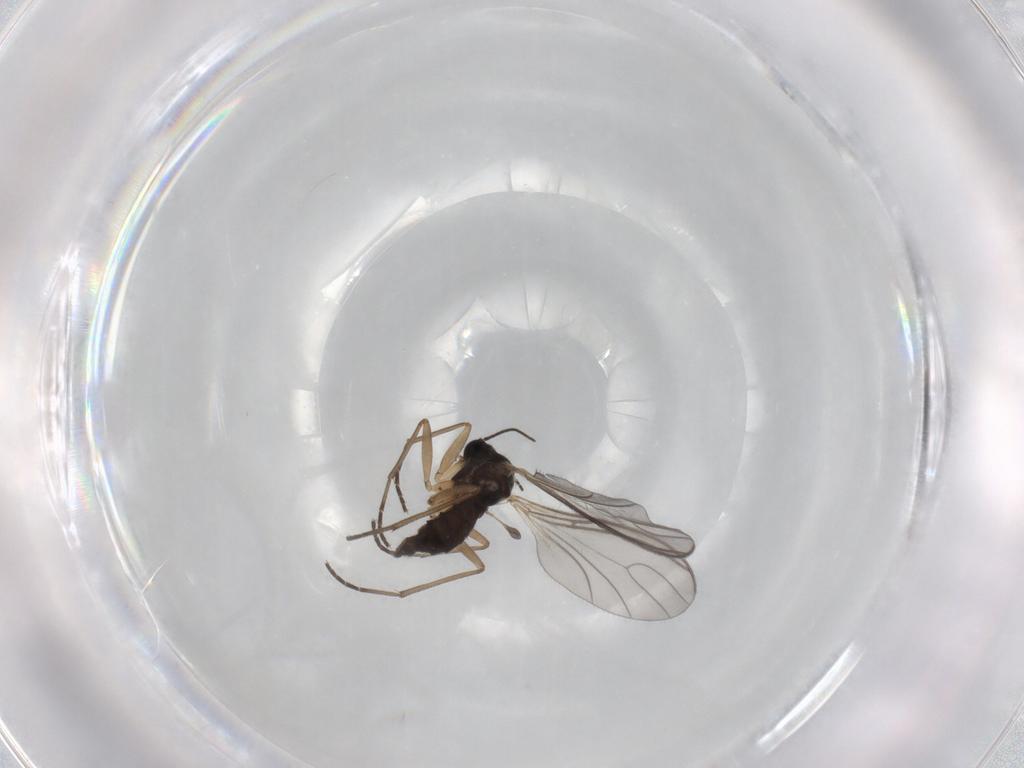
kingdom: Animalia
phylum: Arthropoda
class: Insecta
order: Diptera
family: Sciaridae
